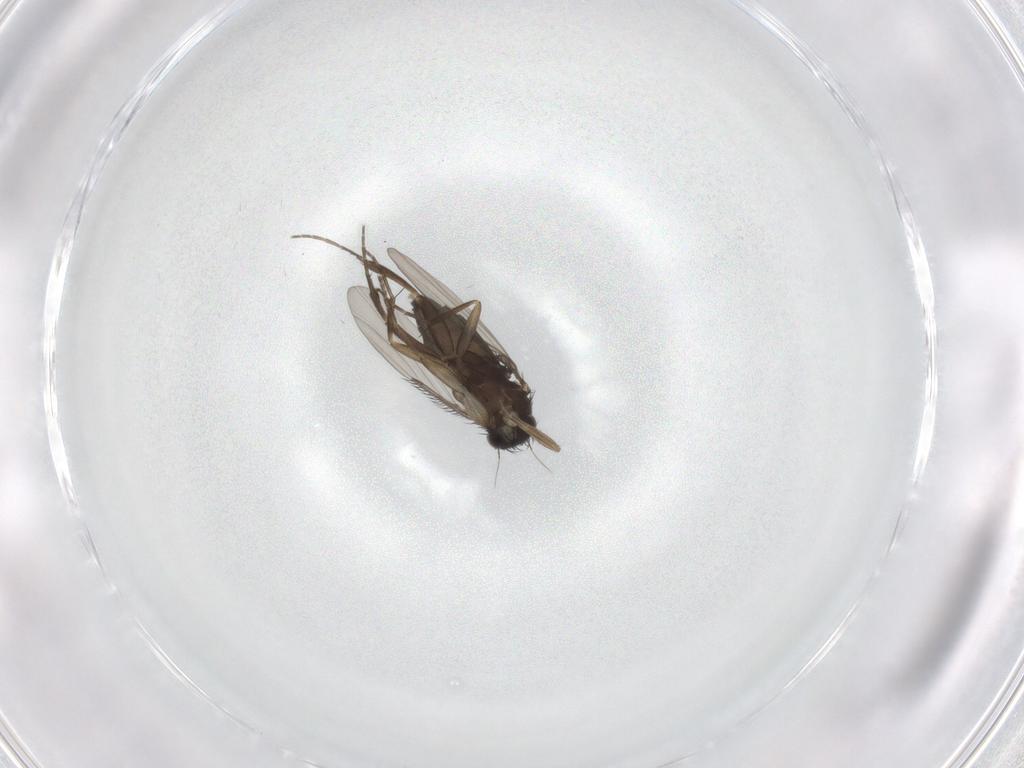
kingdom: Animalia
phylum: Arthropoda
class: Insecta
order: Diptera
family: Phoridae
